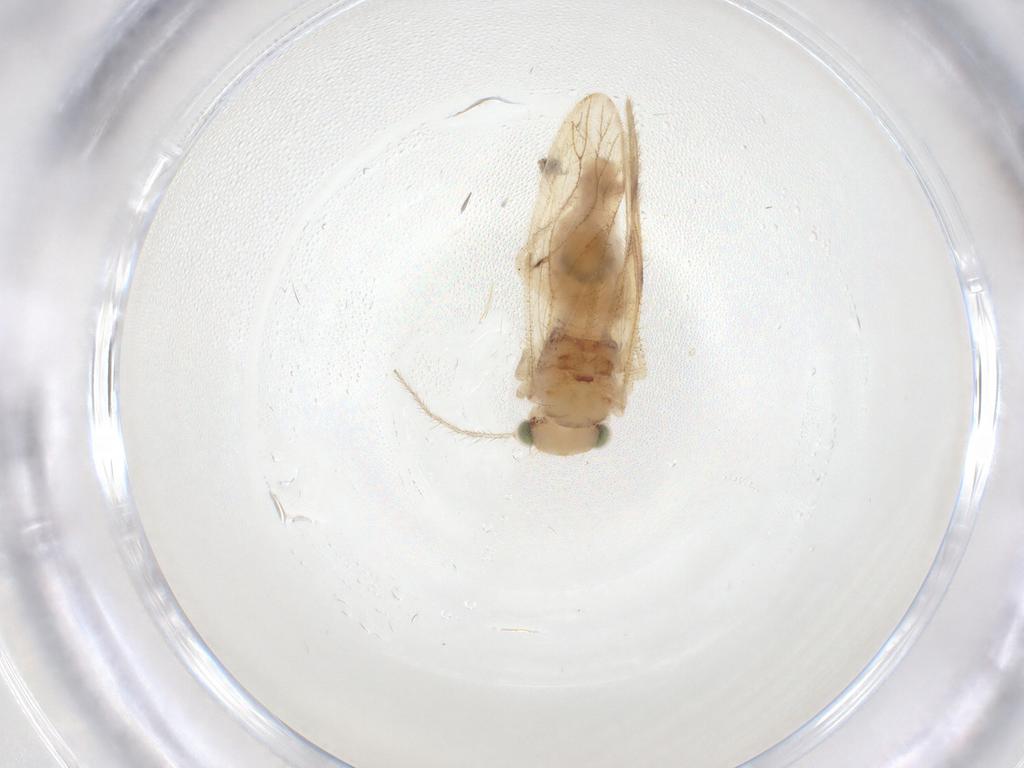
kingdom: Animalia
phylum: Arthropoda
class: Insecta
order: Psocodea
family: Pseudocaeciliidae
